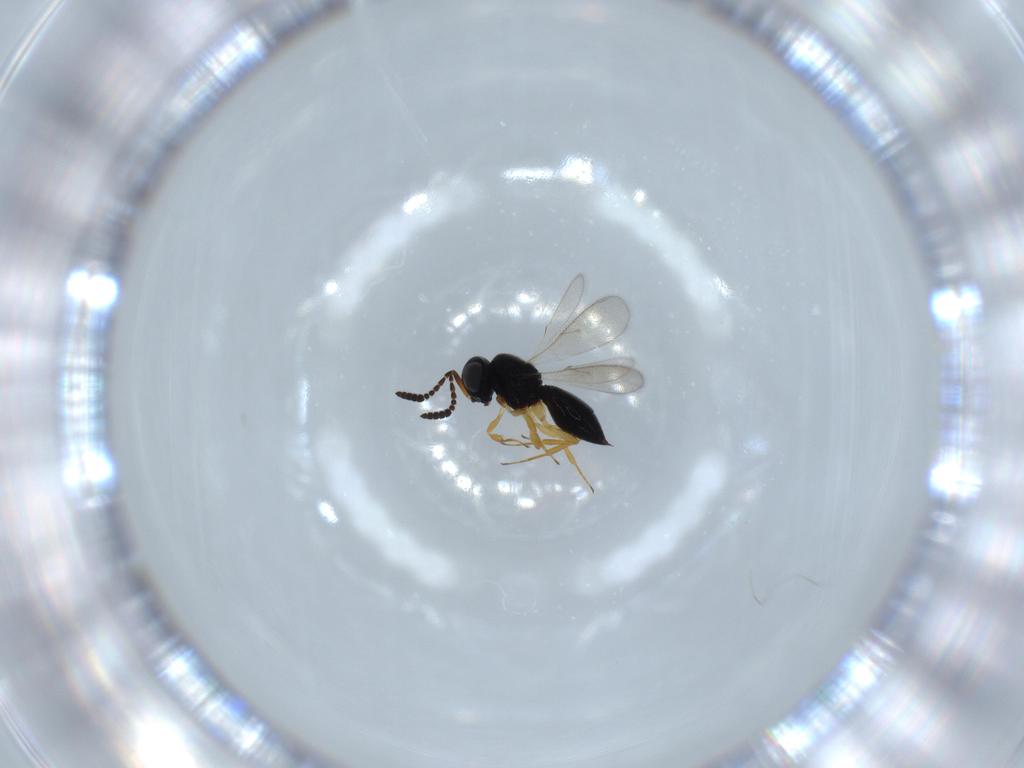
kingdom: Animalia
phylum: Arthropoda
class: Insecta
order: Hymenoptera
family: Scelionidae
